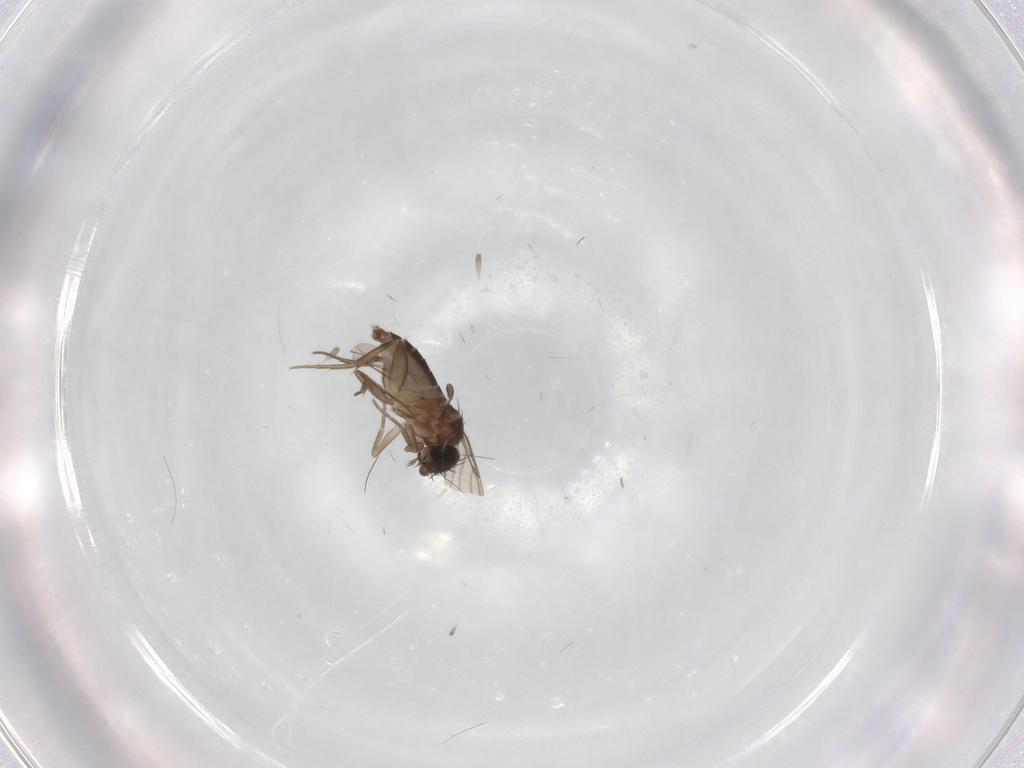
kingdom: Animalia
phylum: Arthropoda
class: Insecta
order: Diptera
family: Phoridae
